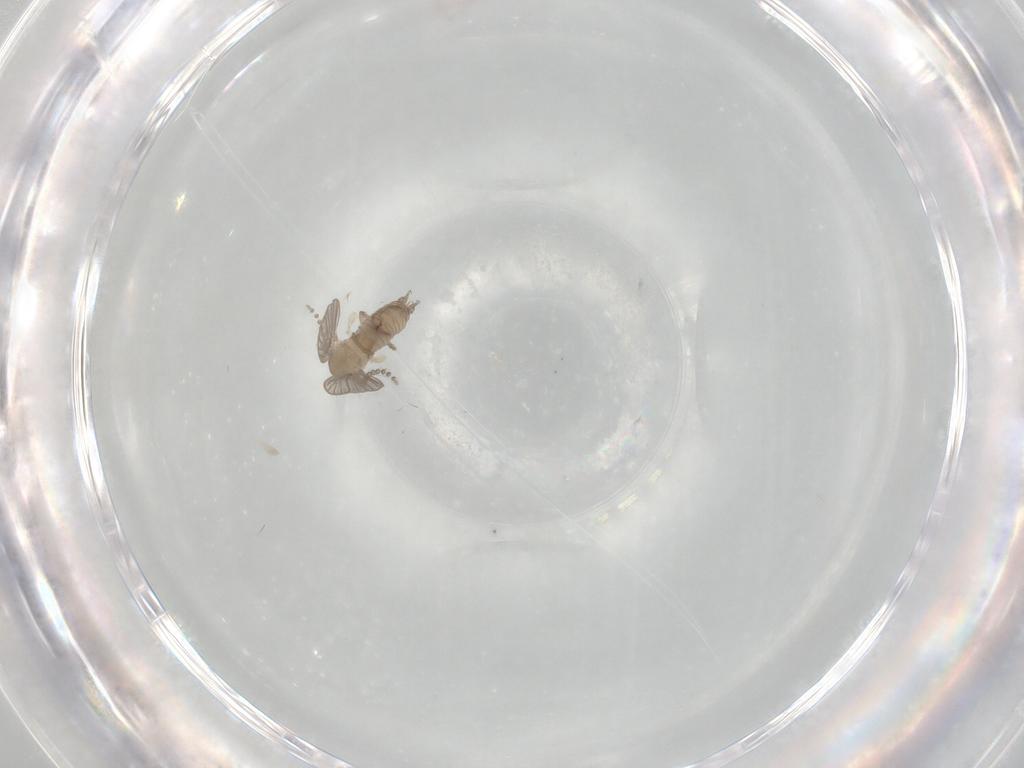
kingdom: Animalia
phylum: Arthropoda
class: Insecta
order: Diptera
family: Psychodidae
